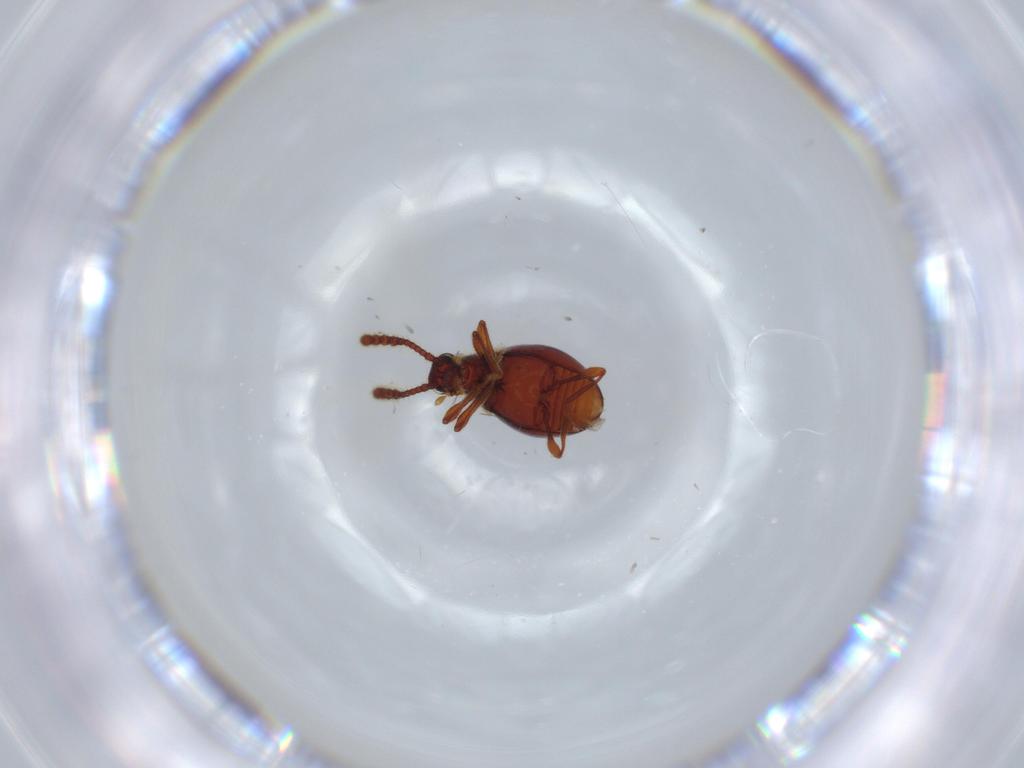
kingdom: Animalia
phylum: Arthropoda
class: Insecta
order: Coleoptera
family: Staphylinidae
